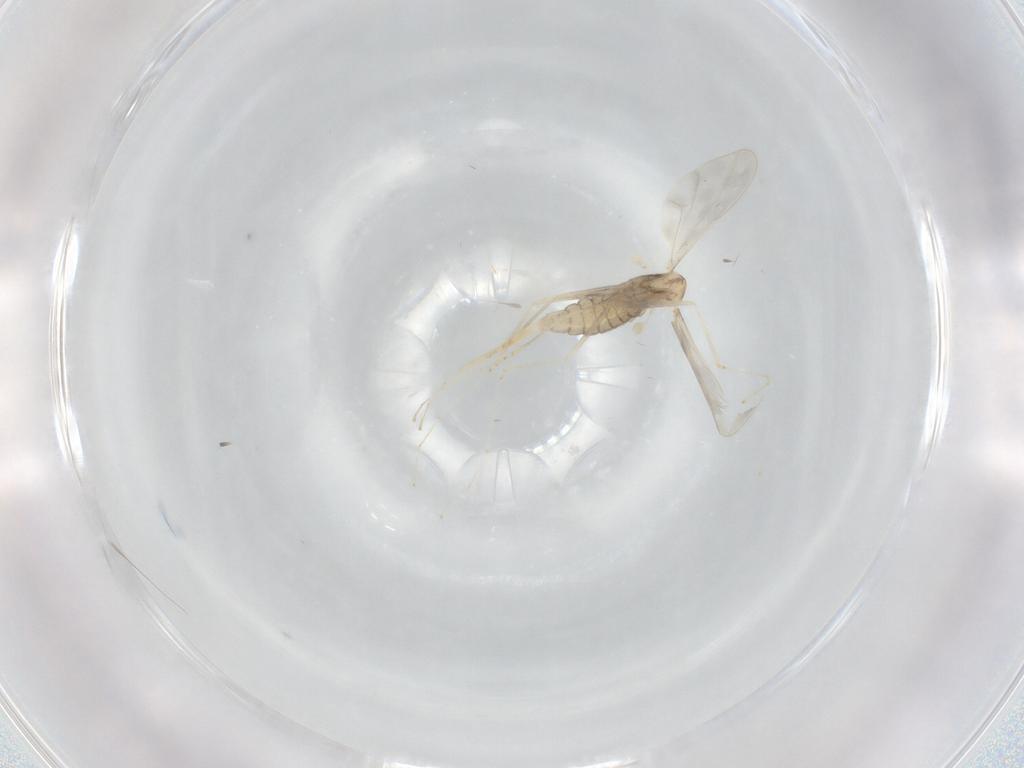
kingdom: Animalia
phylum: Arthropoda
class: Insecta
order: Diptera
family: Cecidomyiidae
